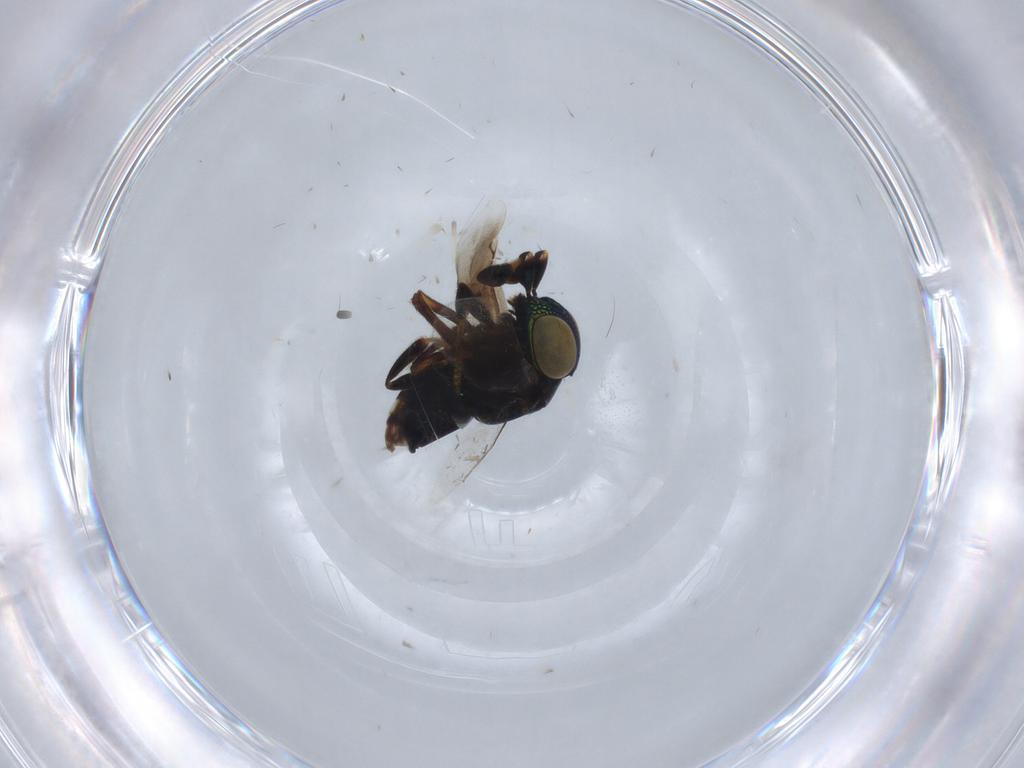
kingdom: Animalia
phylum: Arthropoda
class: Insecta
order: Hymenoptera
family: Encyrtidae
